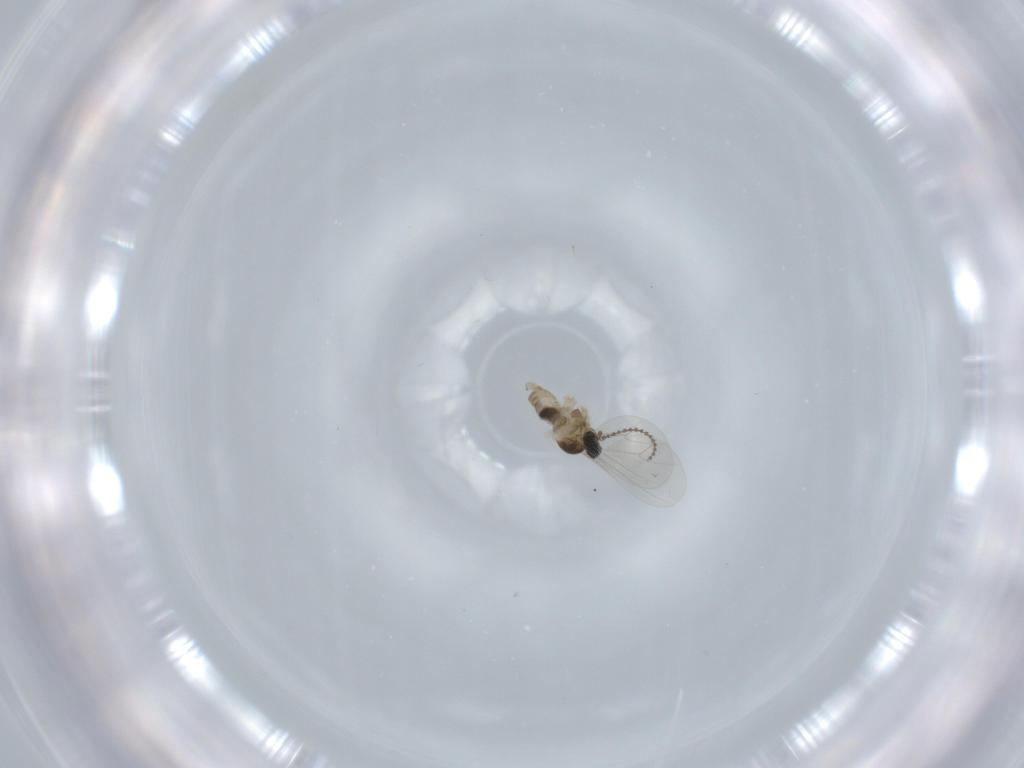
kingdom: Animalia
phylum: Arthropoda
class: Insecta
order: Diptera
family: Cecidomyiidae
